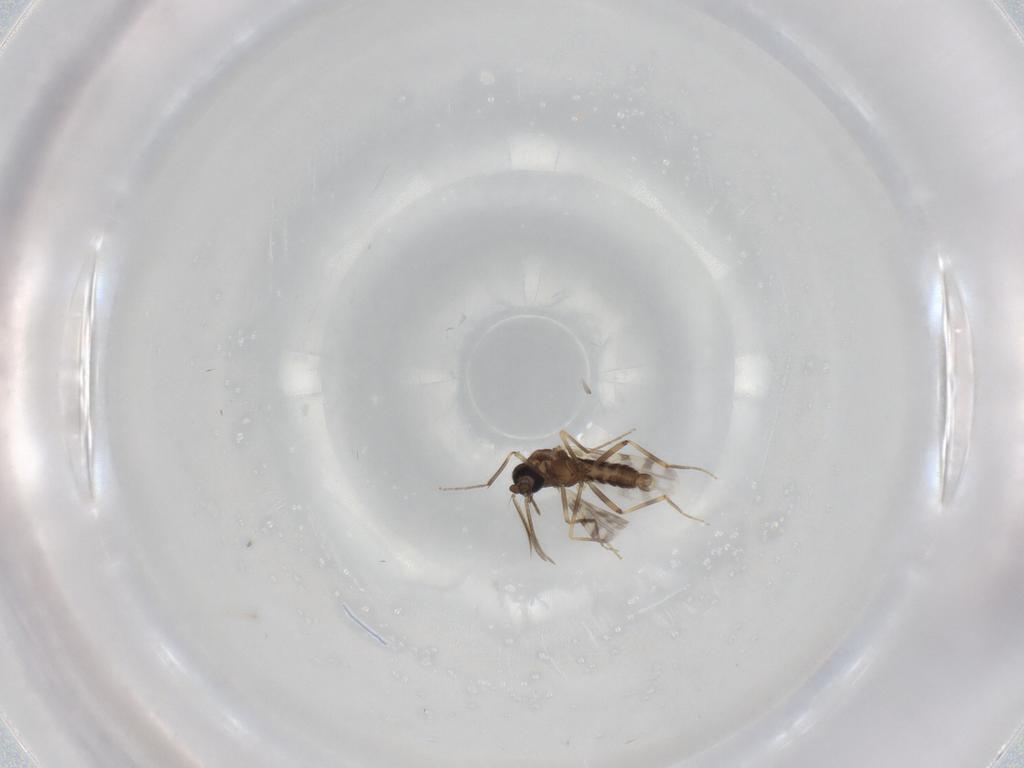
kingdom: Animalia
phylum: Arthropoda
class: Insecta
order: Diptera
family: Ceratopogonidae
